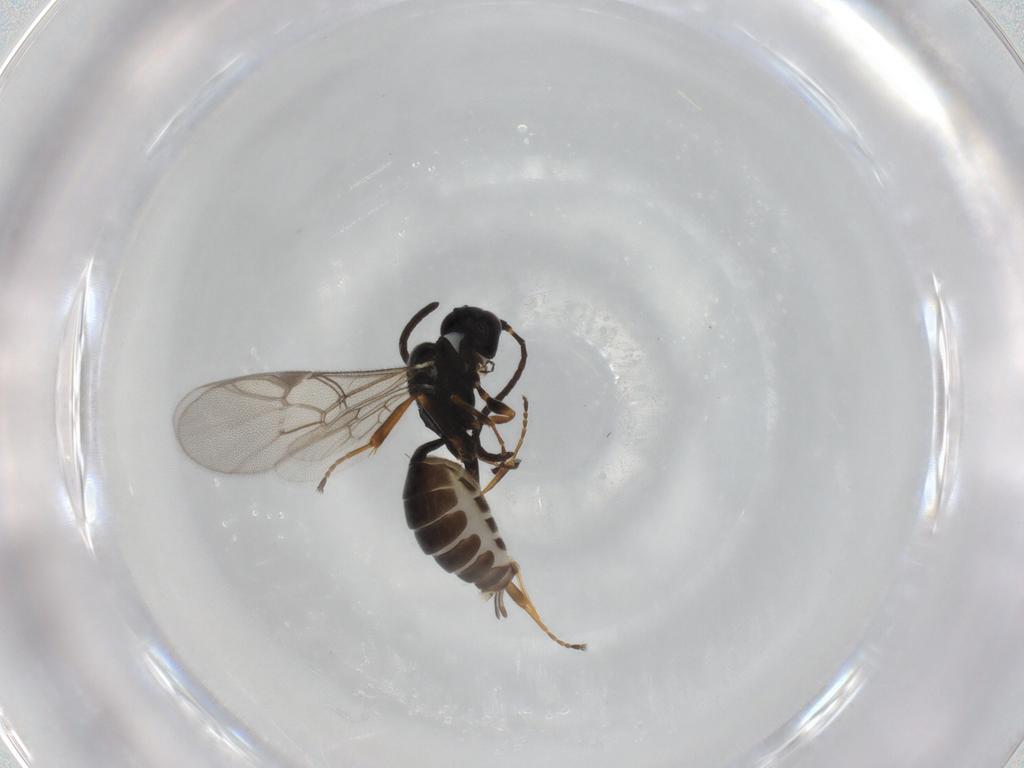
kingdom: Animalia
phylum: Arthropoda
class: Insecta
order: Hymenoptera
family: Ichneumonidae
